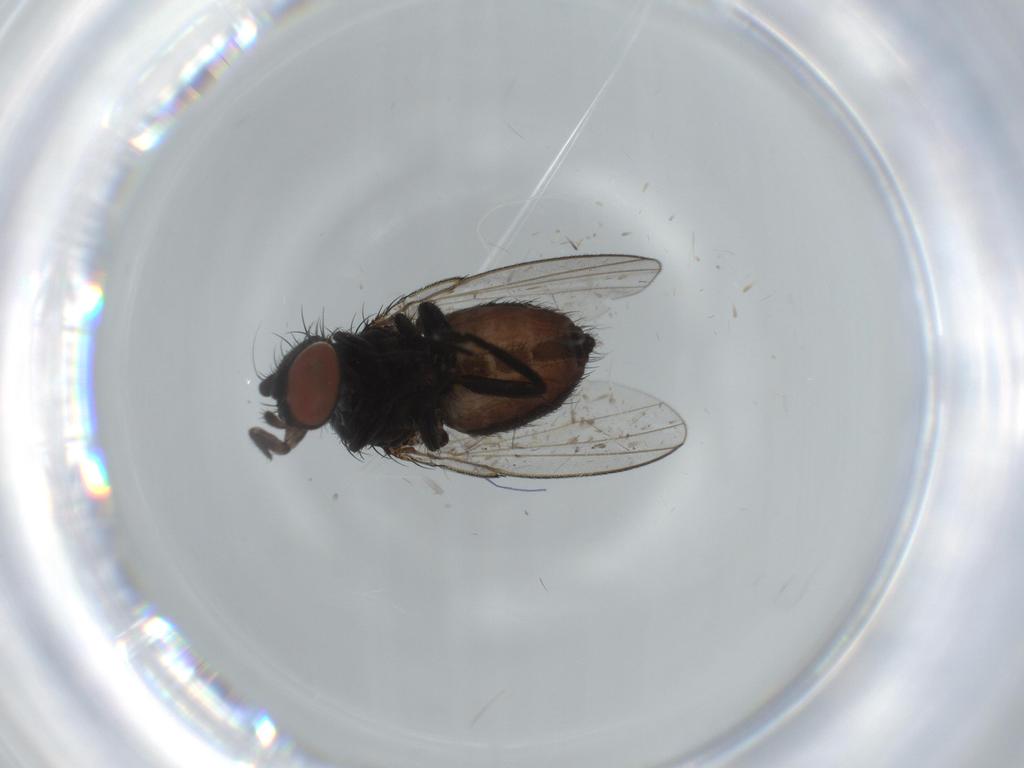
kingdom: Animalia
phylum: Arthropoda
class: Insecta
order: Diptera
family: Milichiidae
